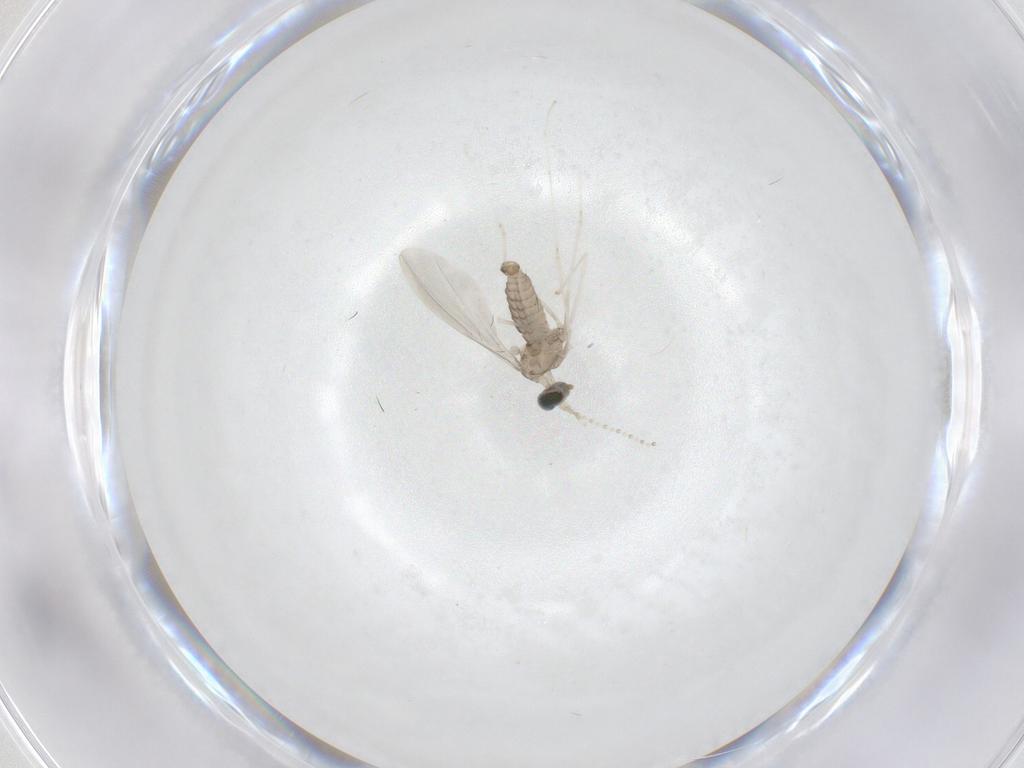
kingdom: Animalia
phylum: Arthropoda
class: Insecta
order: Diptera
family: Cecidomyiidae
